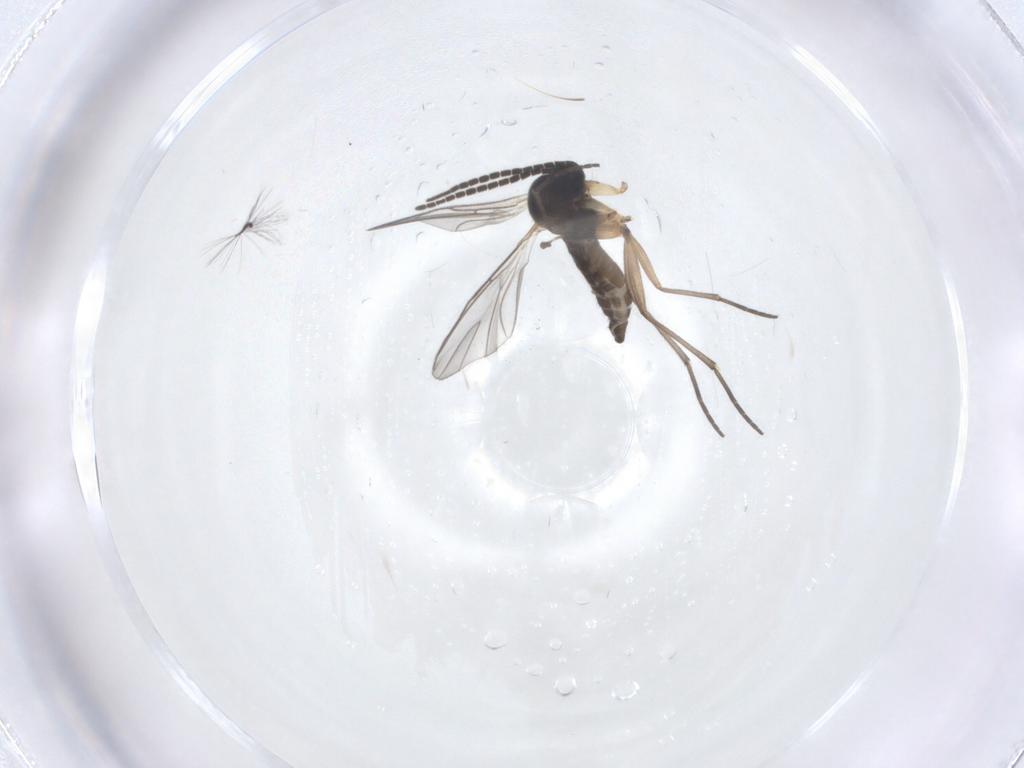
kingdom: Animalia
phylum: Arthropoda
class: Insecta
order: Diptera
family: Sciaridae
